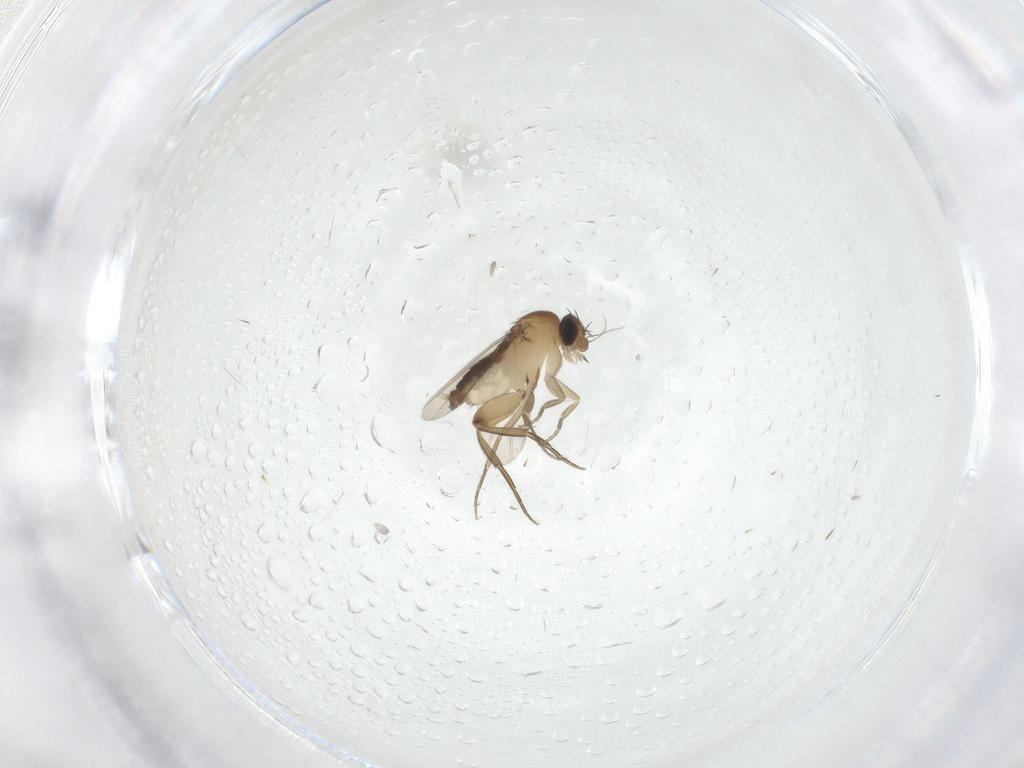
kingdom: Animalia
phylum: Arthropoda
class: Insecta
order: Diptera
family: Phoridae
